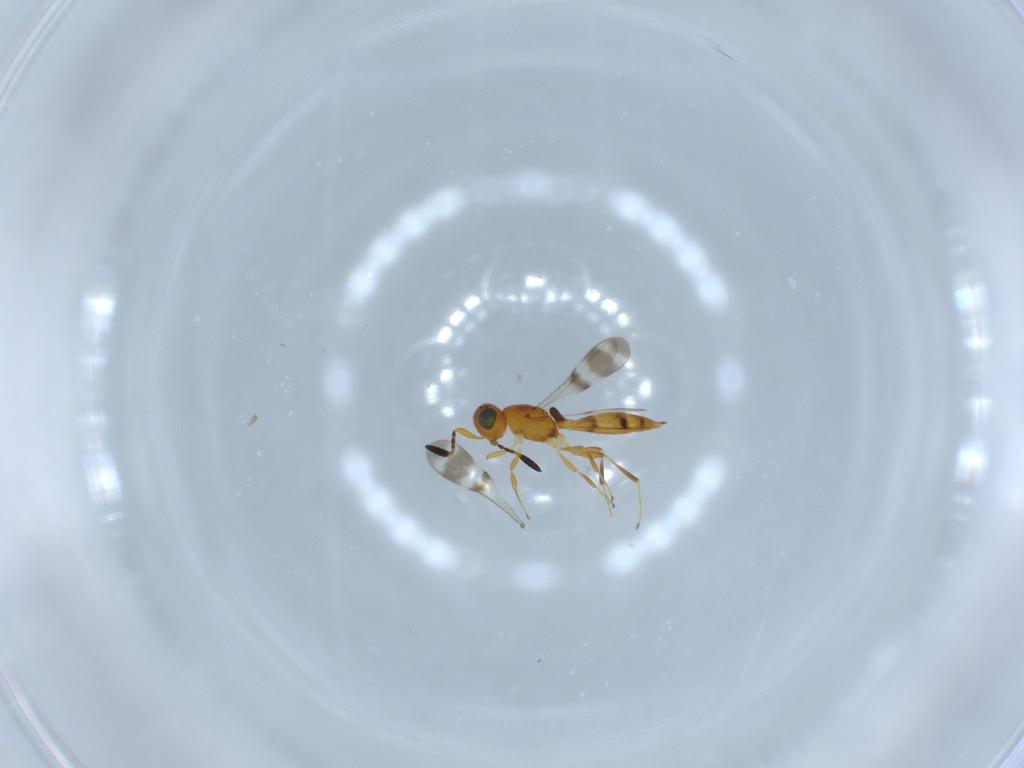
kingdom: Animalia
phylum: Arthropoda
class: Insecta
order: Hymenoptera
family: Scelionidae
